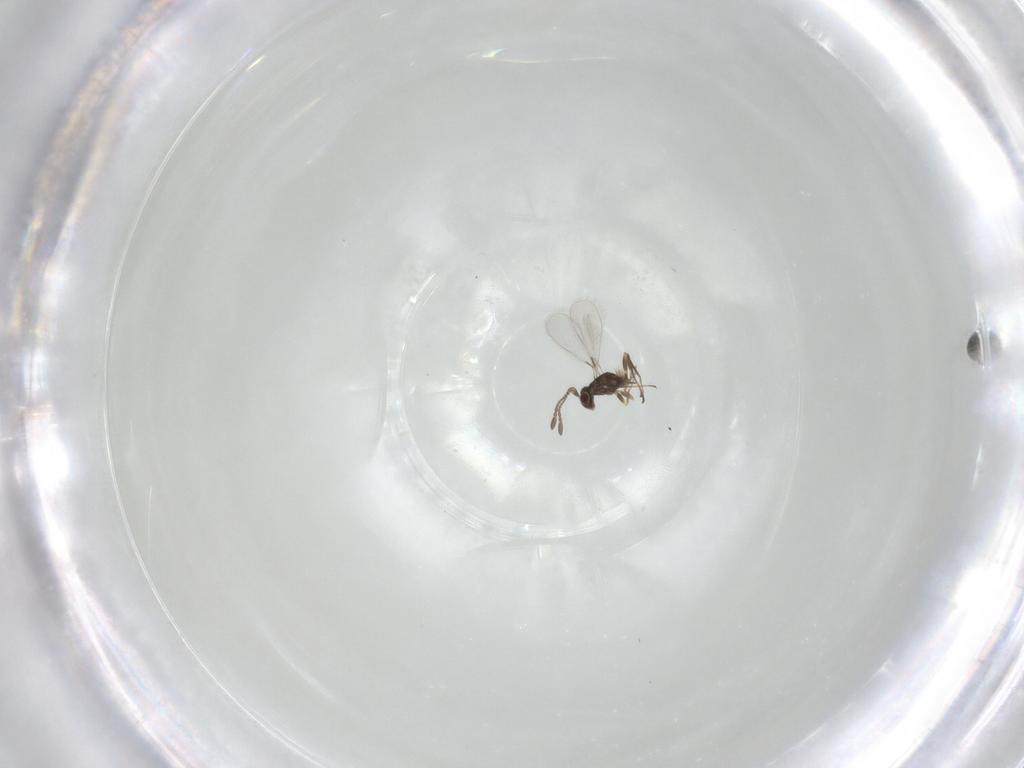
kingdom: Animalia
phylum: Arthropoda
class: Insecta
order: Hymenoptera
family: Mymaridae
